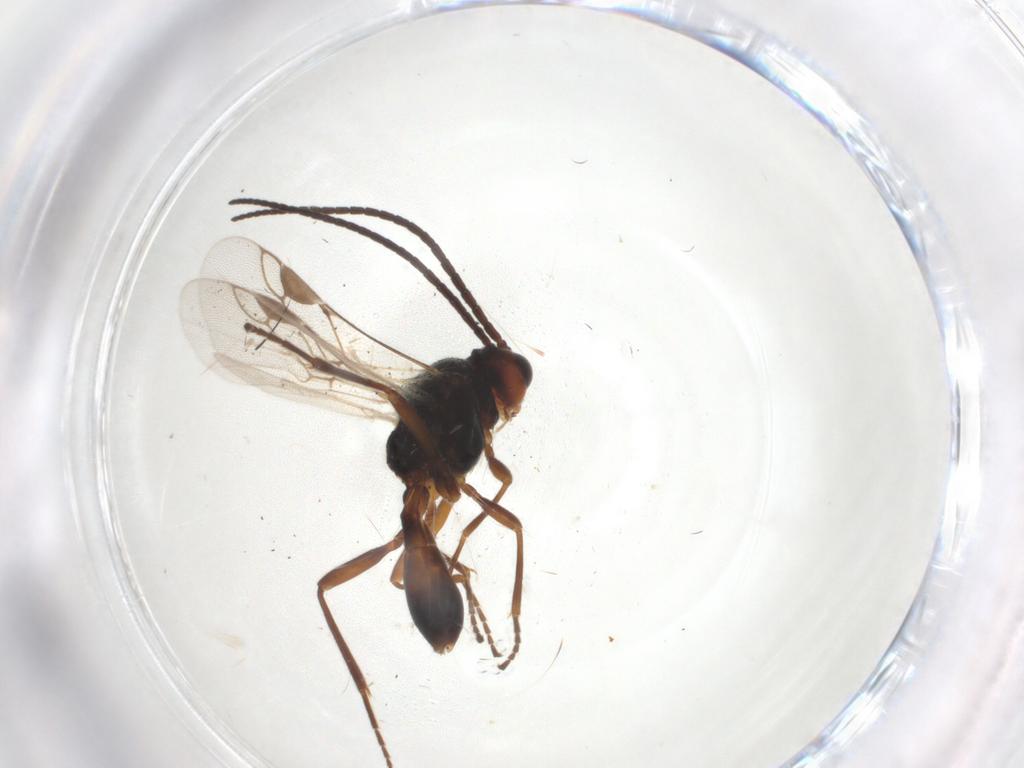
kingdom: Animalia
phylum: Arthropoda
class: Insecta
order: Hymenoptera
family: Braconidae
